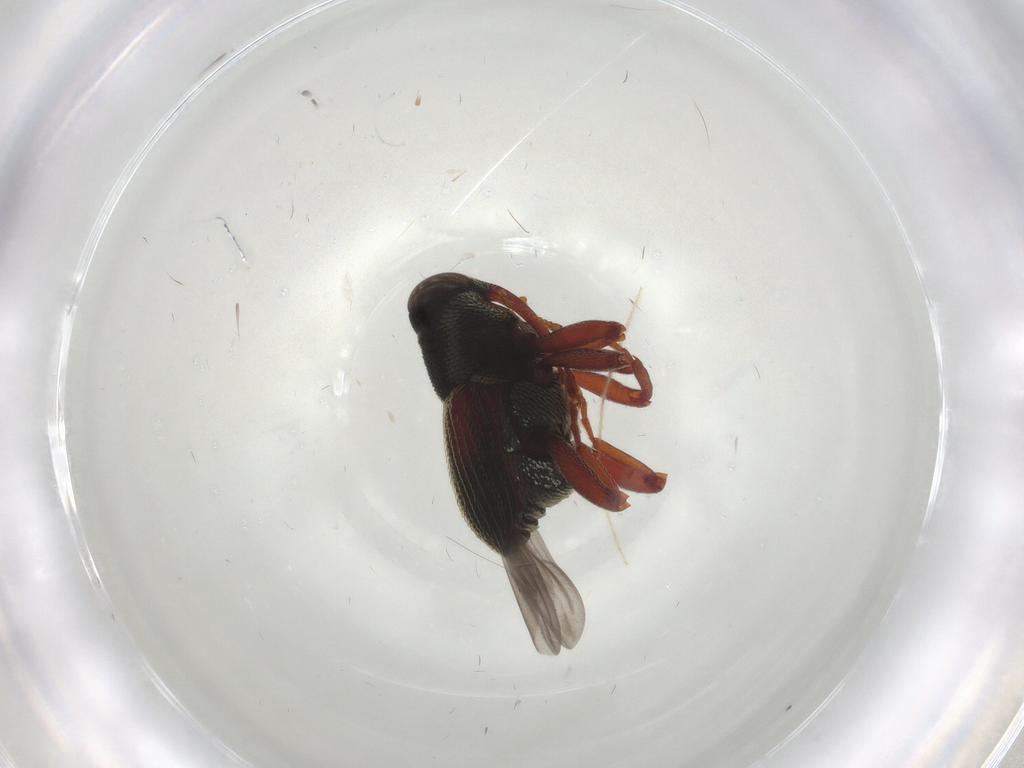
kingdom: Animalia
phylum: Arthropoda
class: Insecta
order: Coleoptera
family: Curculionidae
